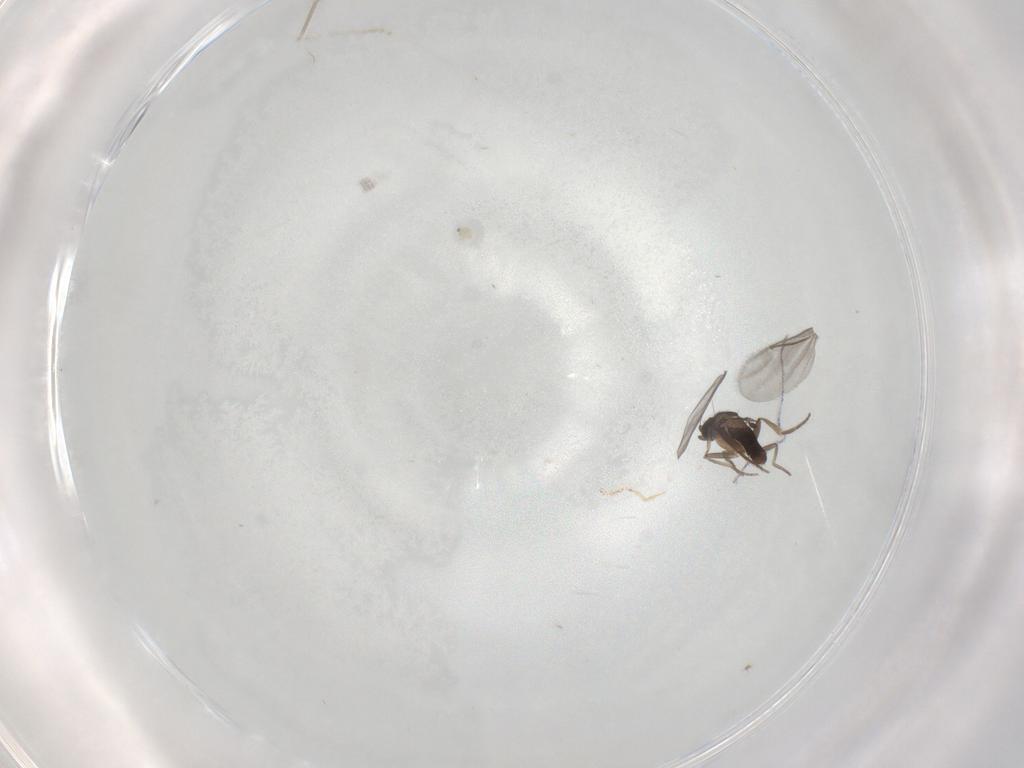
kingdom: Animalia
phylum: Arthropoda
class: Insecta
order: Diptera
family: Cecidomyiidae
